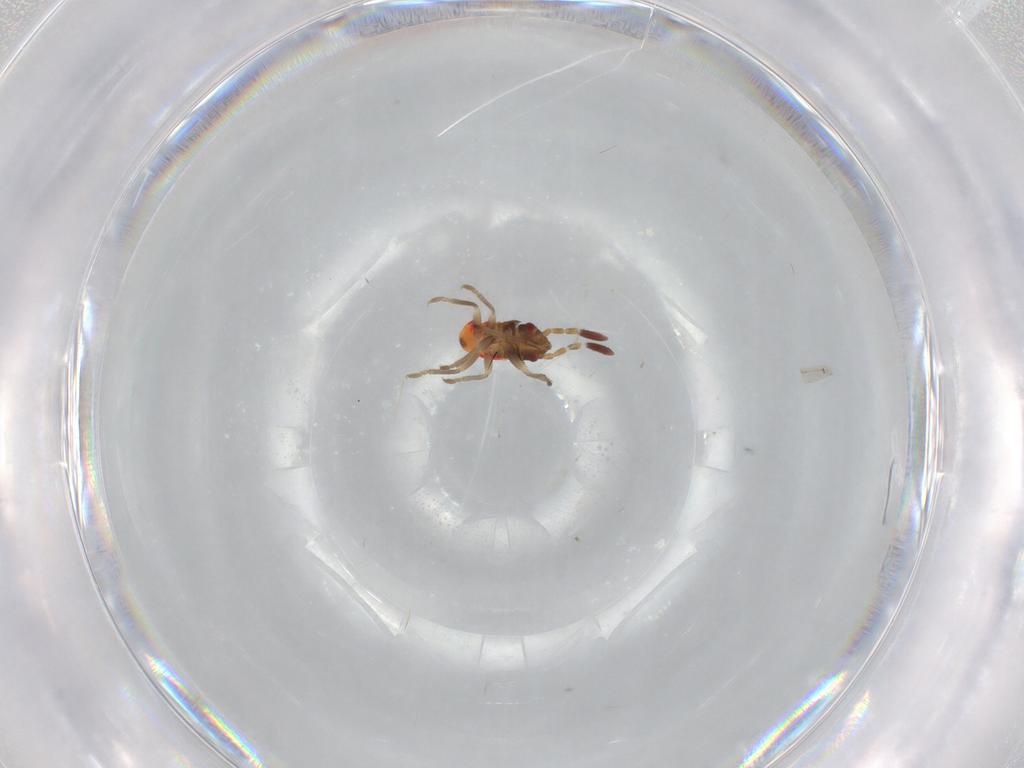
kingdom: Animalia
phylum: Arthropoda
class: Insecta
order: Hemiptera
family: Rhyparochromidae
